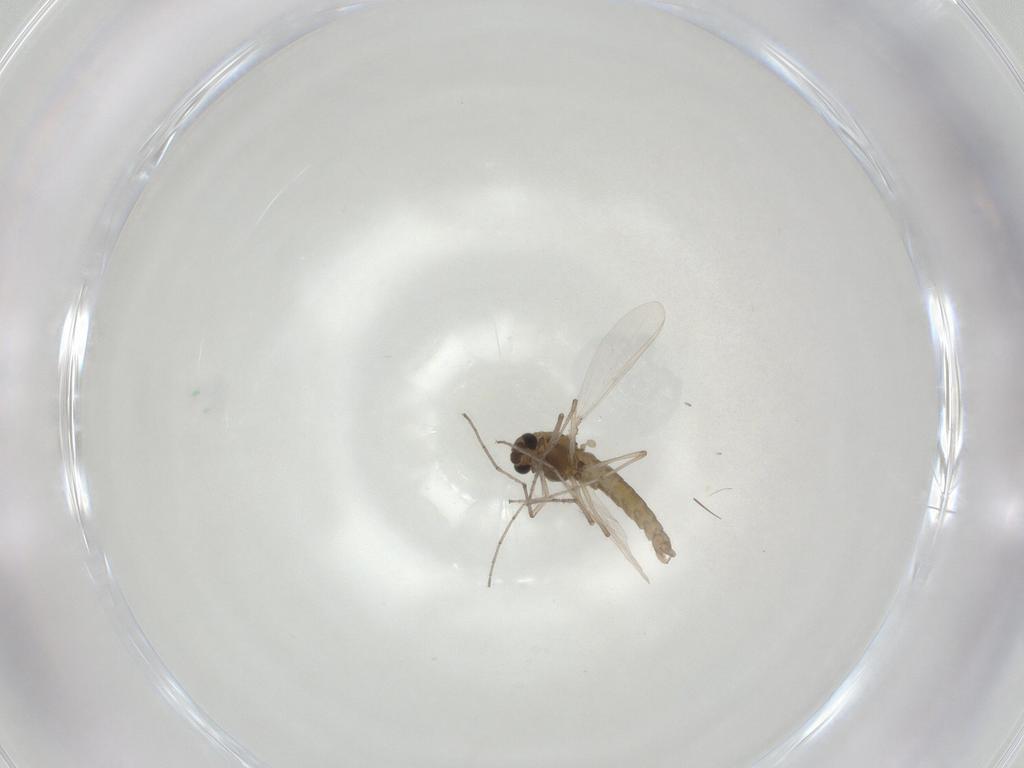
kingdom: Animalia
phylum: Arthropoda
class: Insecta
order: Diptera
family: Chironomidae
